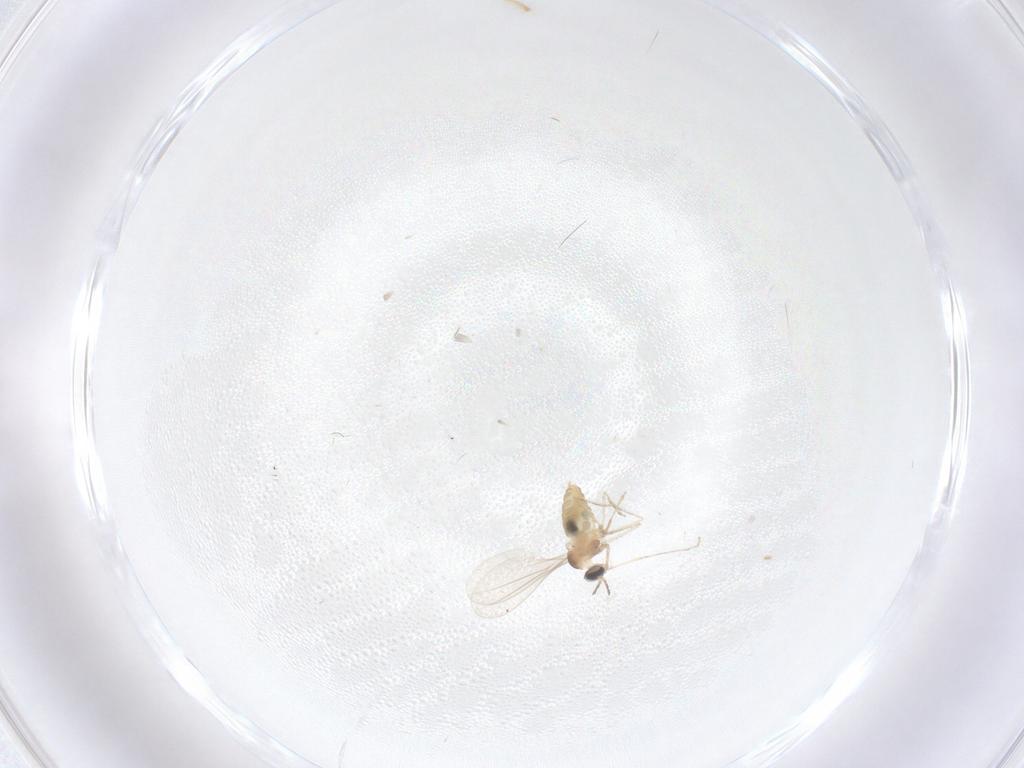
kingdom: Animalia
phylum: Arthropoda
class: Insecta
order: Diptera
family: Cecidomyiidae
